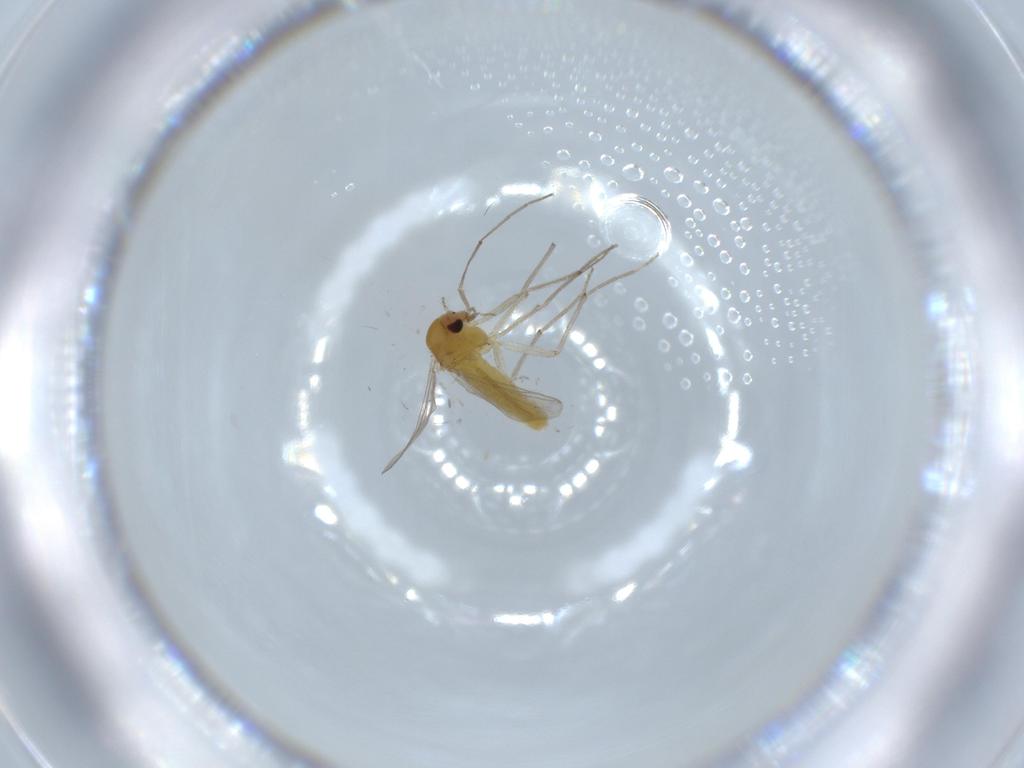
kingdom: Animalia
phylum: Arthropoda
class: Insecta
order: Diptera
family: Chironomidae
